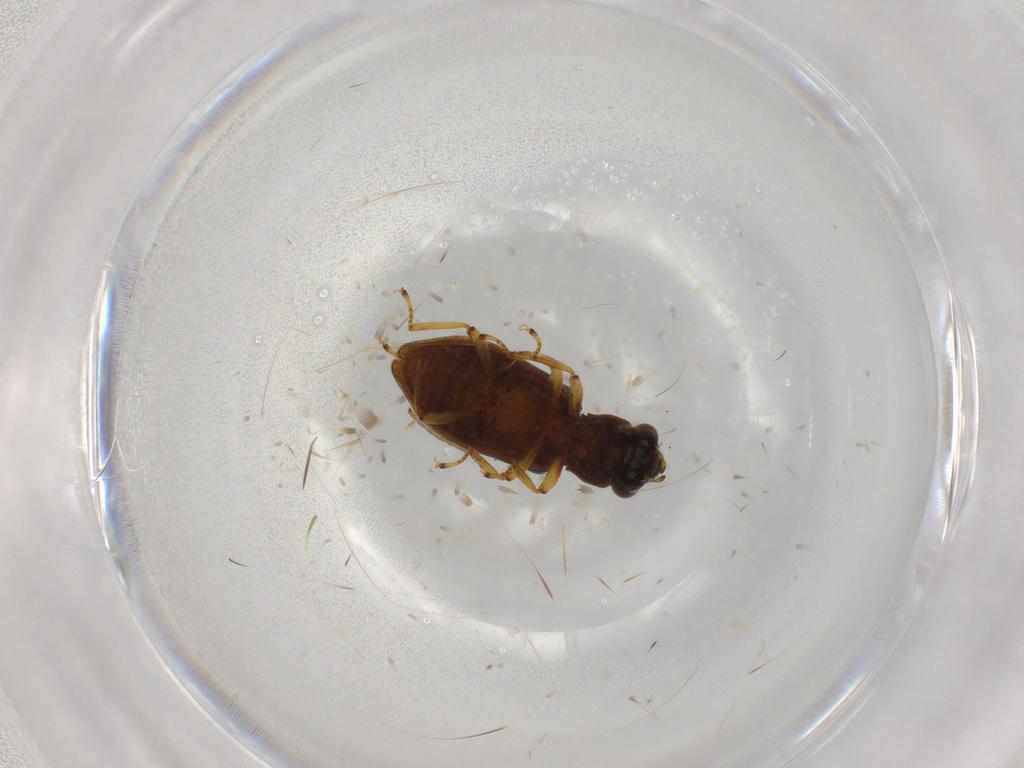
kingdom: Animalia
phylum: Arthropoda
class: Insecta
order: Coleoptera
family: Hydrophilidae
